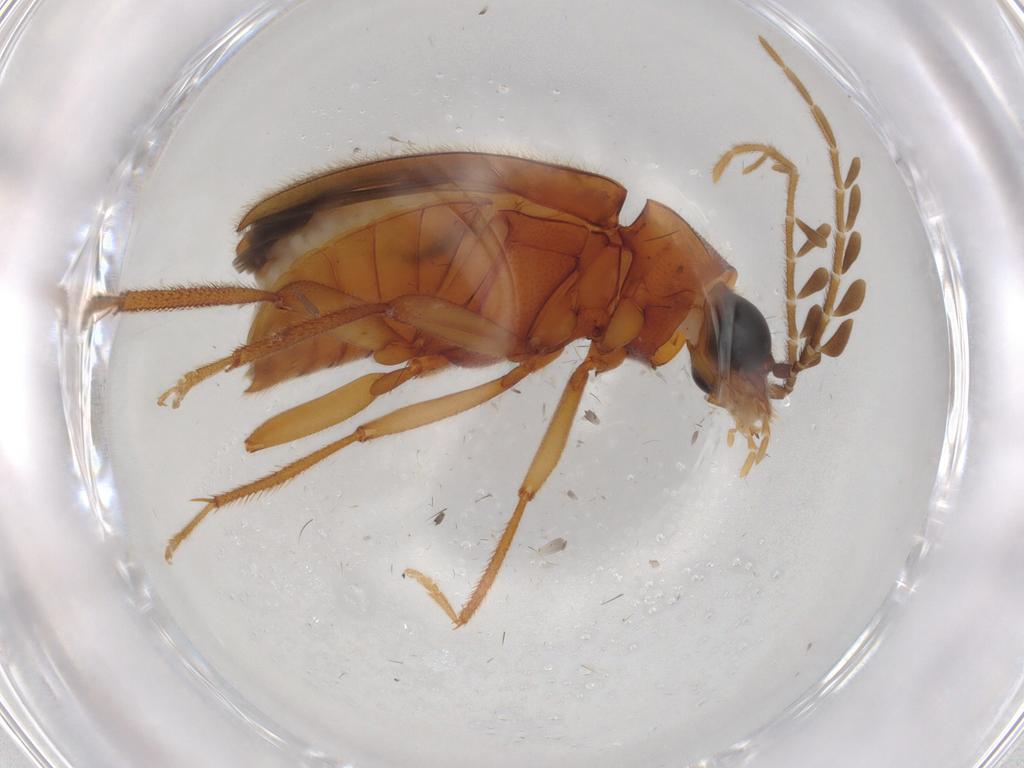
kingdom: Animalia
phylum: Arthropoda
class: Insecta
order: Coleoptera
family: Ptilodactylidae
